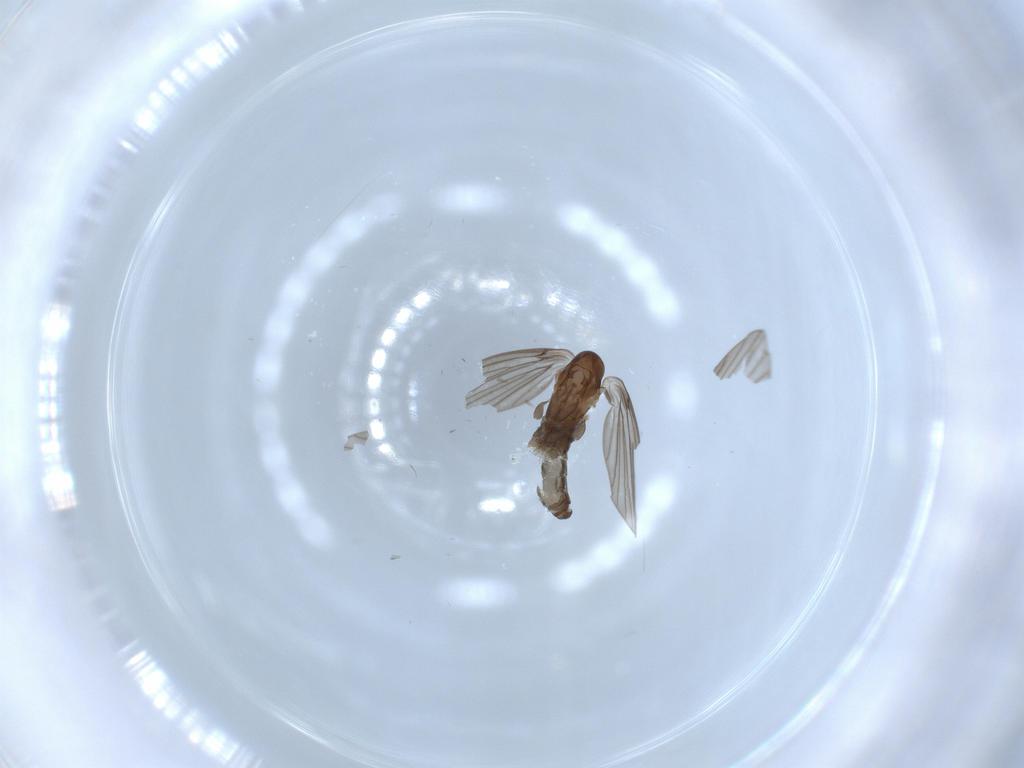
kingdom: Animalia
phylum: Arthropoda
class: Insecta
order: Diptera
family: Psychodidae
